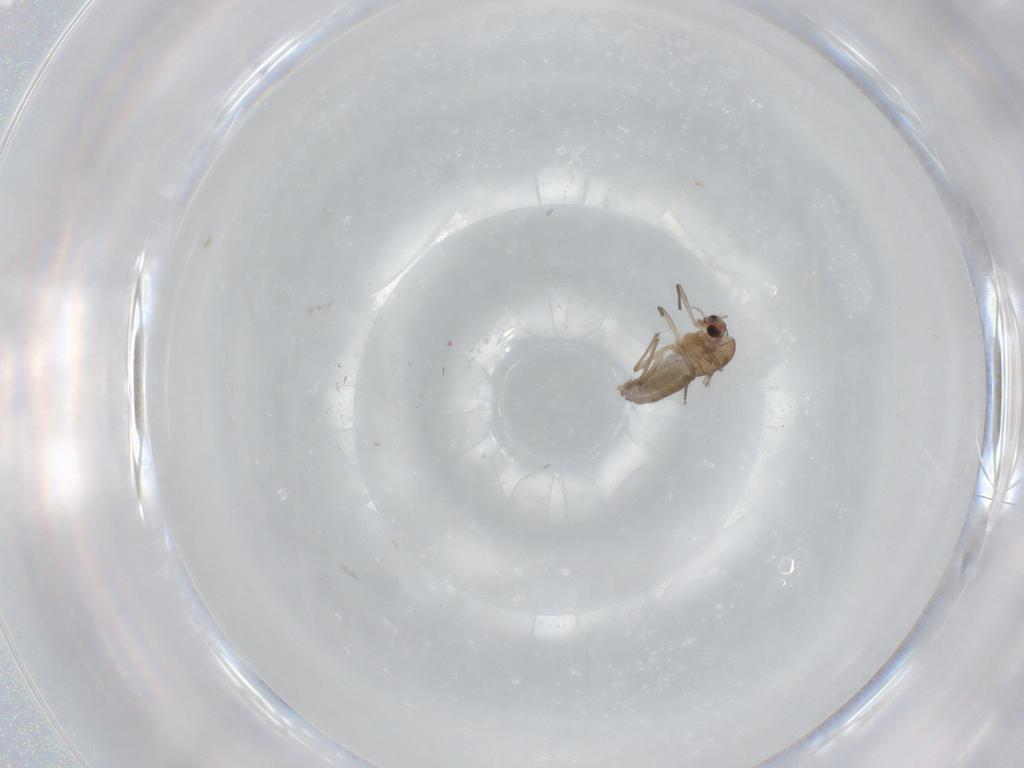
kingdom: Animalia
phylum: Arthropoda
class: Insecta
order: Diptera
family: Chironomidae
